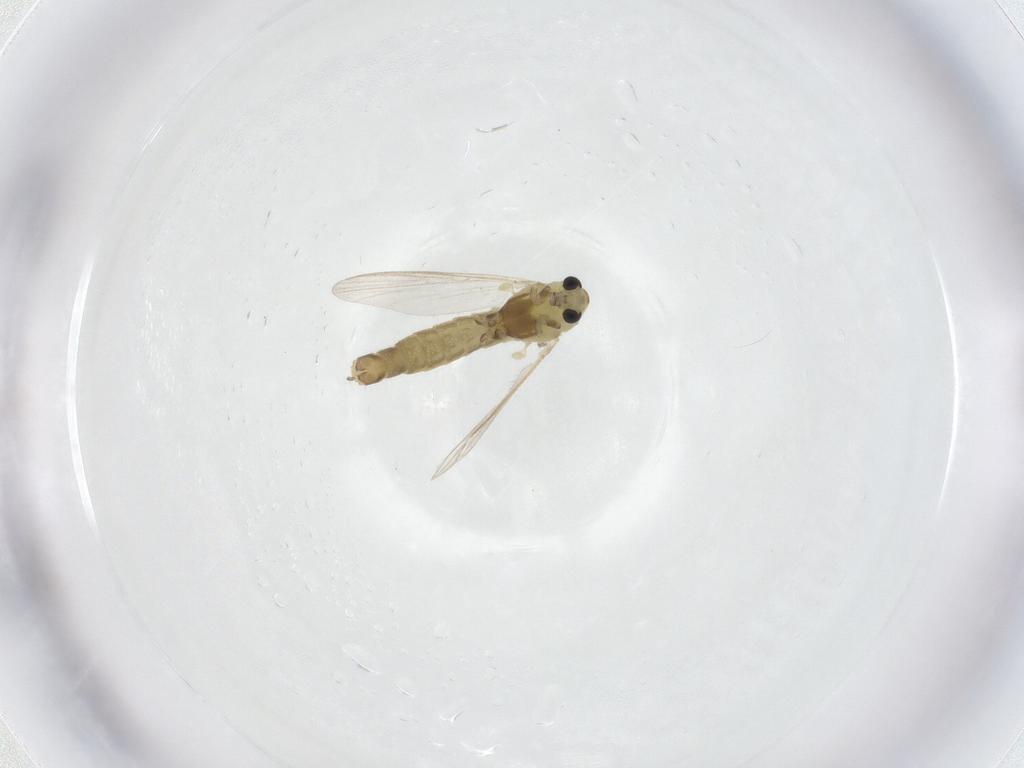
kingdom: Animalia
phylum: Arthropoda
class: Insecta
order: Diptera
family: Chironomidae
